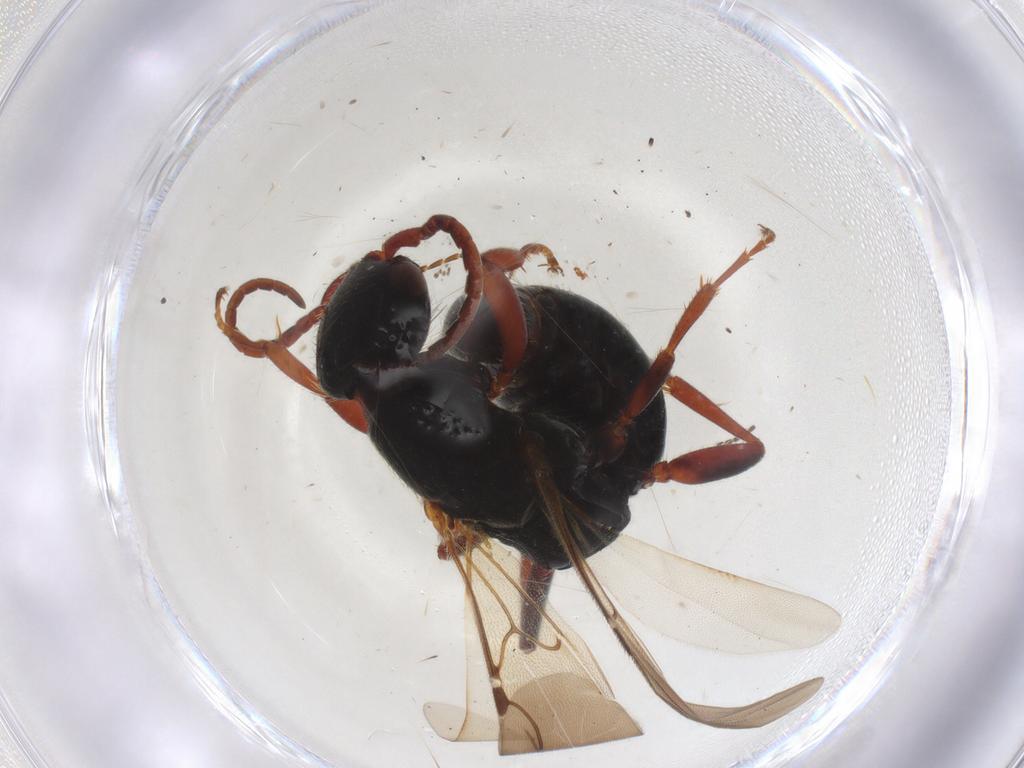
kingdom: Animalia
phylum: Arthropoda
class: Insecta
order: Hymenoptera
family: Bethylidae
